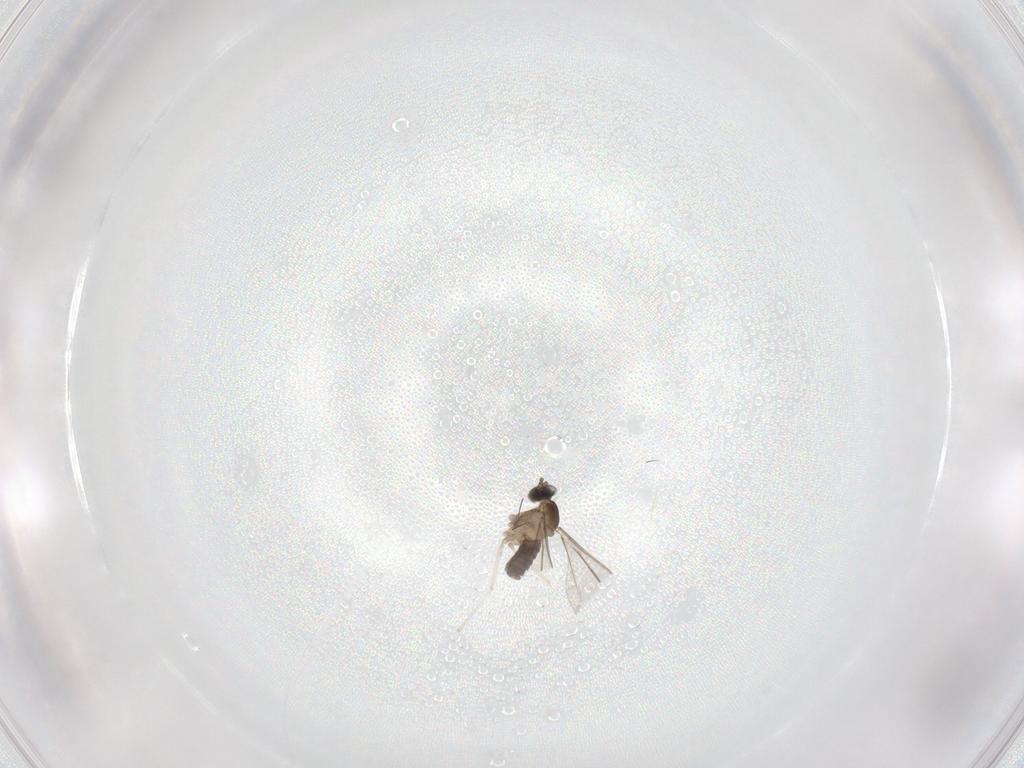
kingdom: Animalia
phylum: Arthropoda
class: Insecta
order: Diptera
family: Cecidomyiidae
